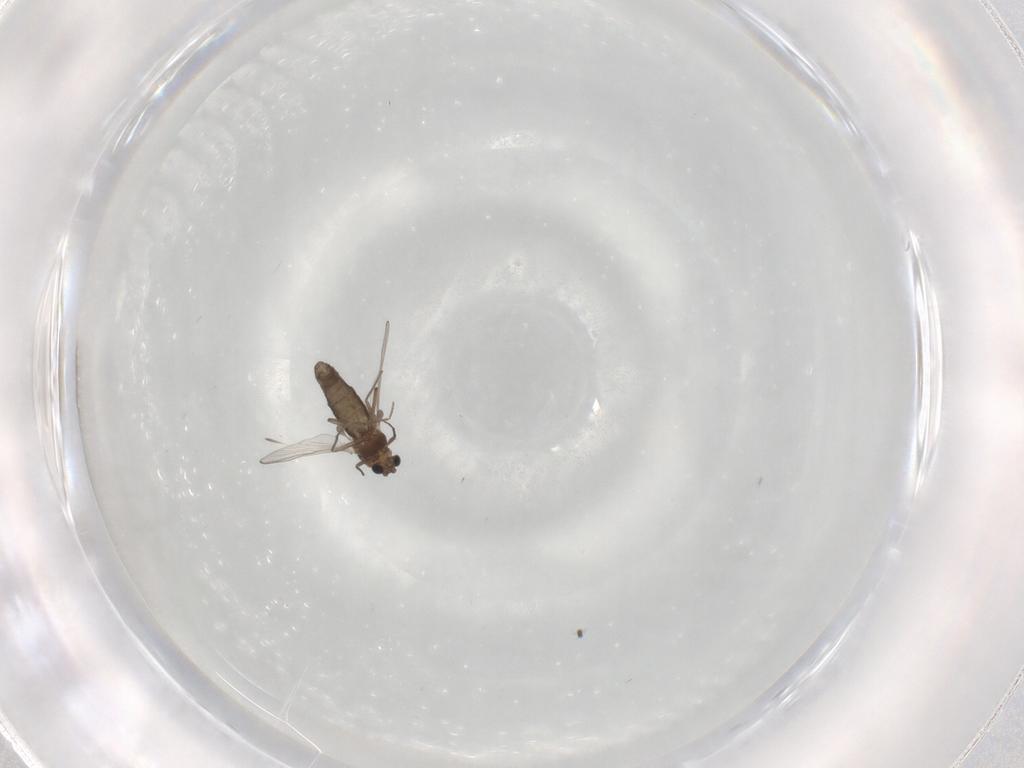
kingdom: Animalia
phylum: Arthropoda
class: Insecta
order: Diptera
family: Chironomidae
